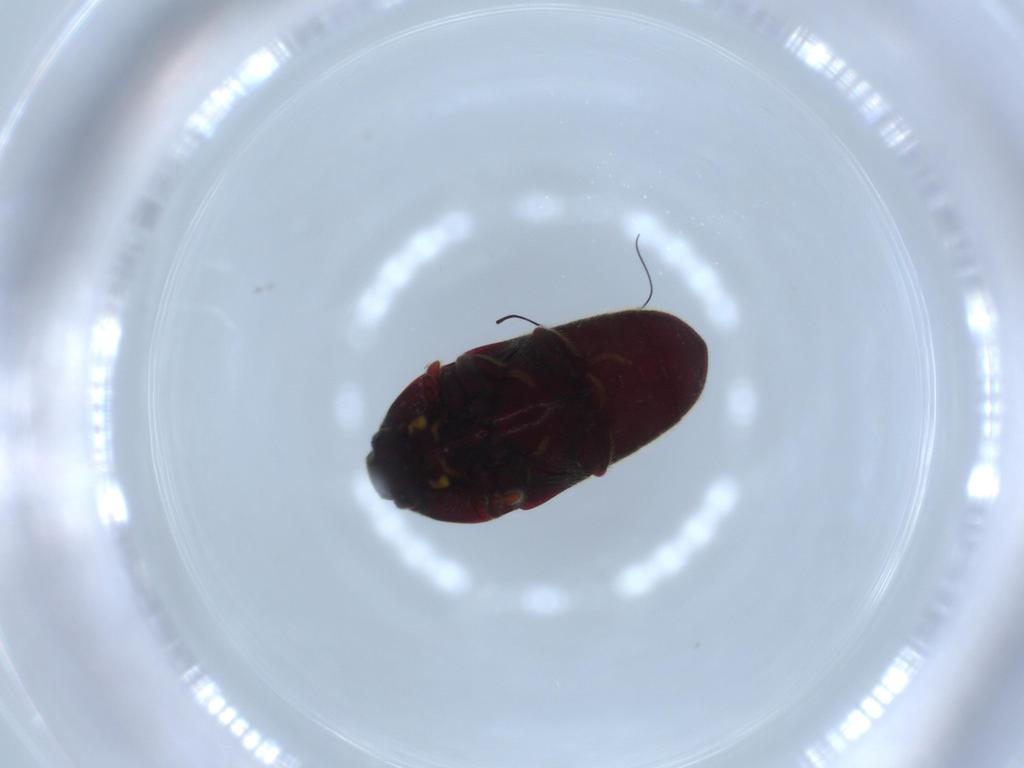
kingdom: Animalia
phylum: Arthropoda
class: Insecta
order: Coleoptera
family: Throscidae
